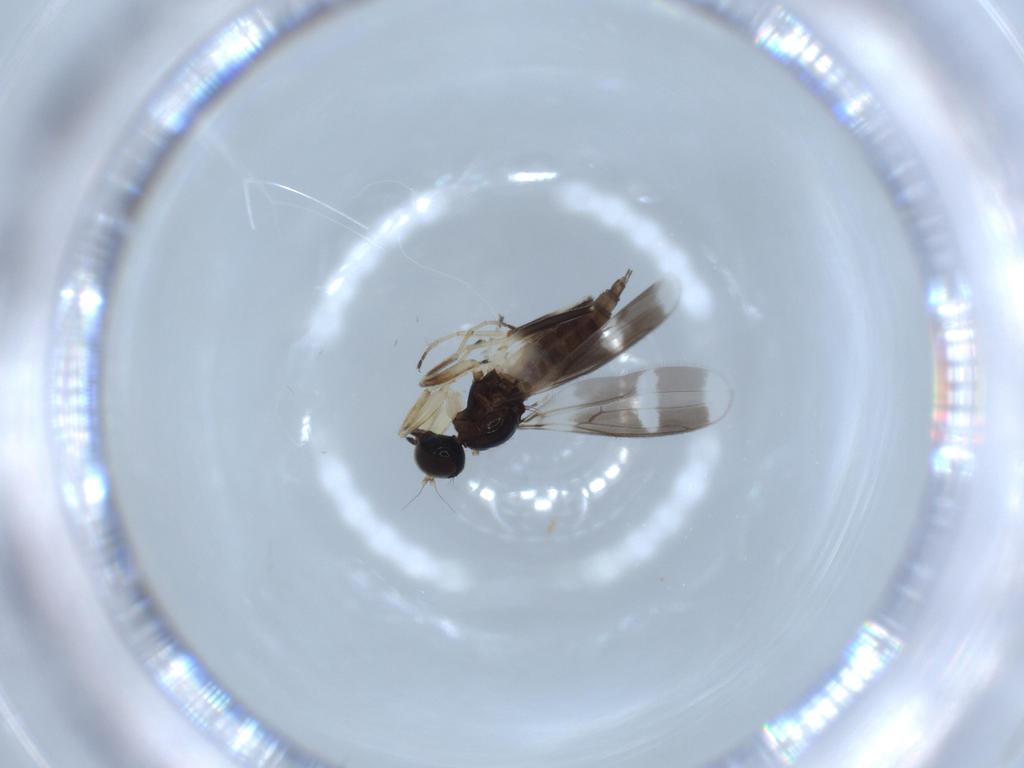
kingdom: Animalia
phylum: Arthropoda
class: Insecta
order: Diptera
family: Hybotidae
